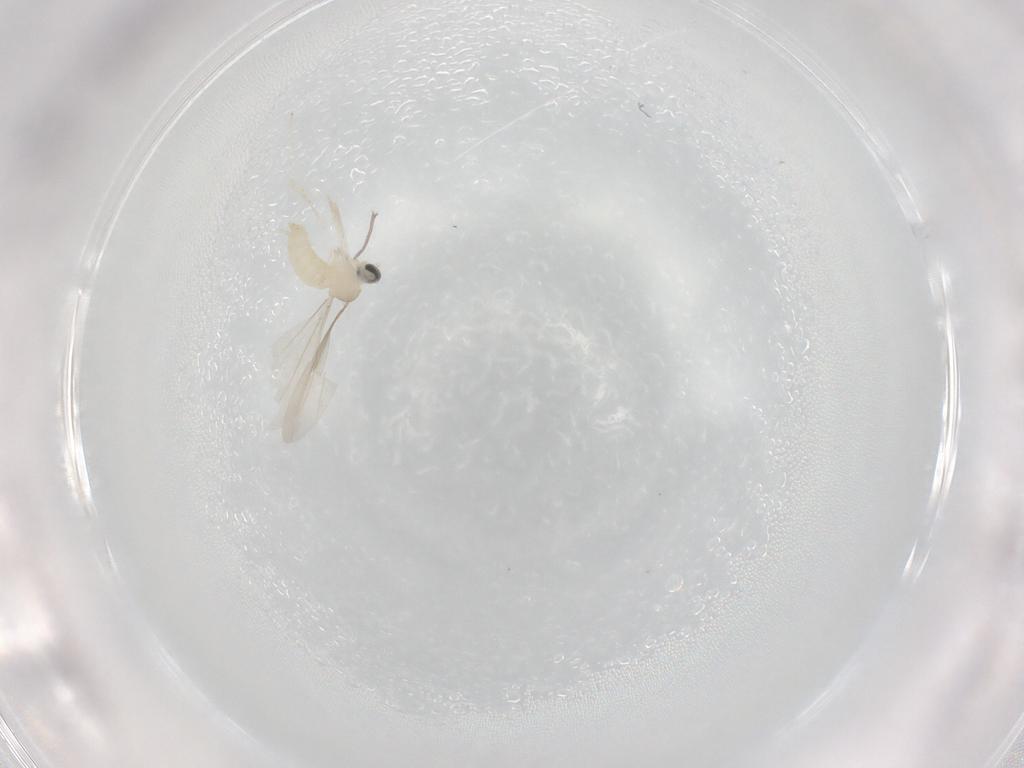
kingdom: Animalia
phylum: Arthropoda
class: Insecta
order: Diptera
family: Cecidomyiidae
